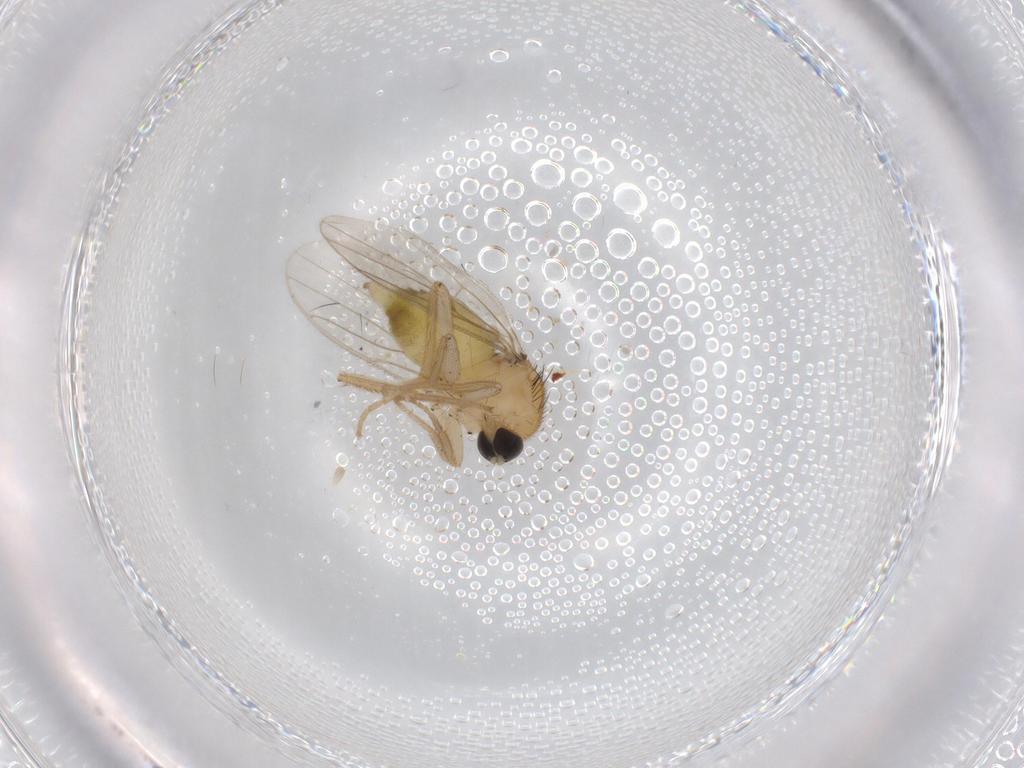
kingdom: Animalia
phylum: Arthropoda
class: Insecta
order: Diptera
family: Hybotidae
